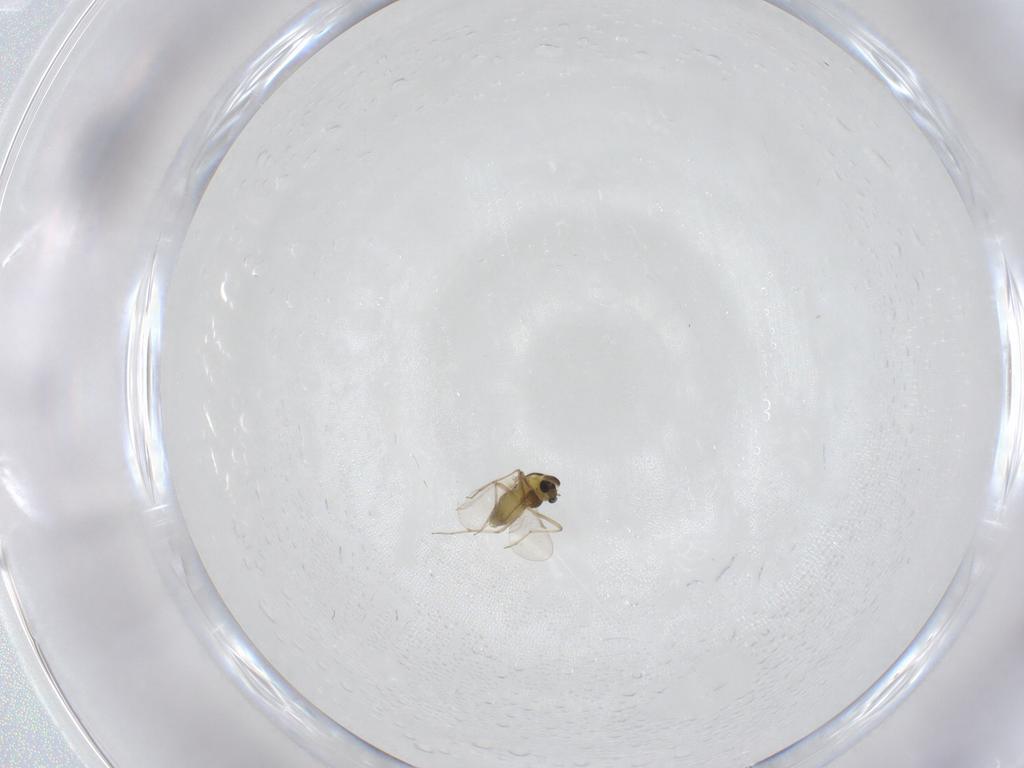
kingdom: Animalia
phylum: Arthropoda
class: Insecta
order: Diptera
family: Chironomidae
